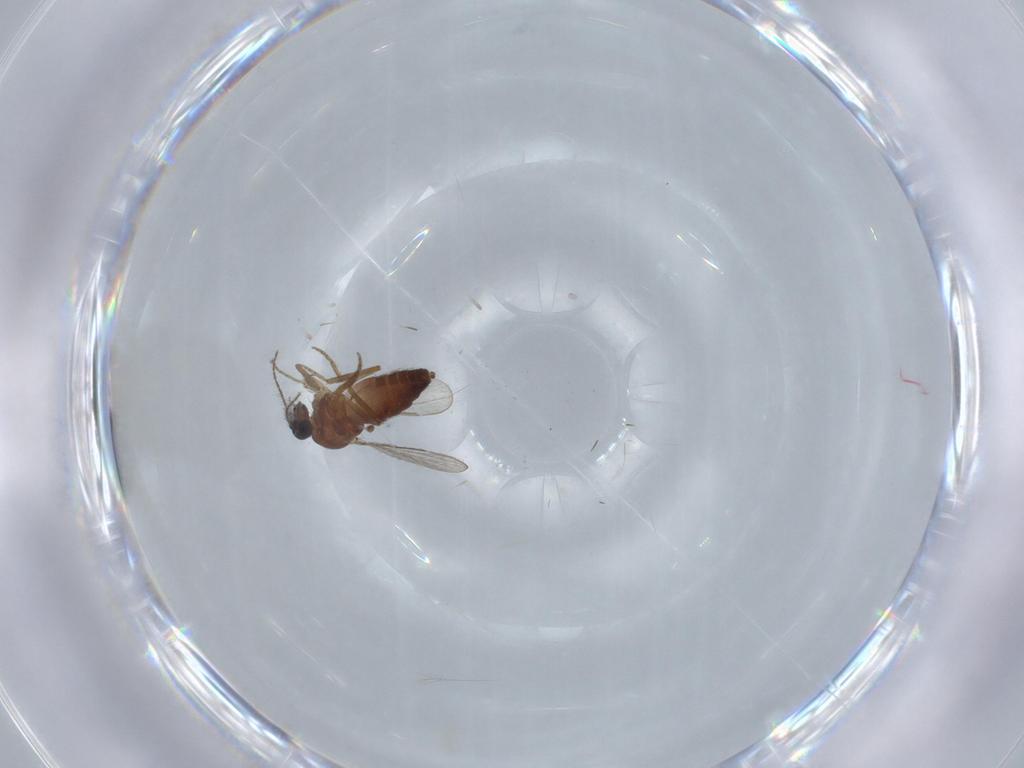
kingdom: Animalia
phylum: Arthropoda
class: Insecta
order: Diptera
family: Ceratopogonidae
